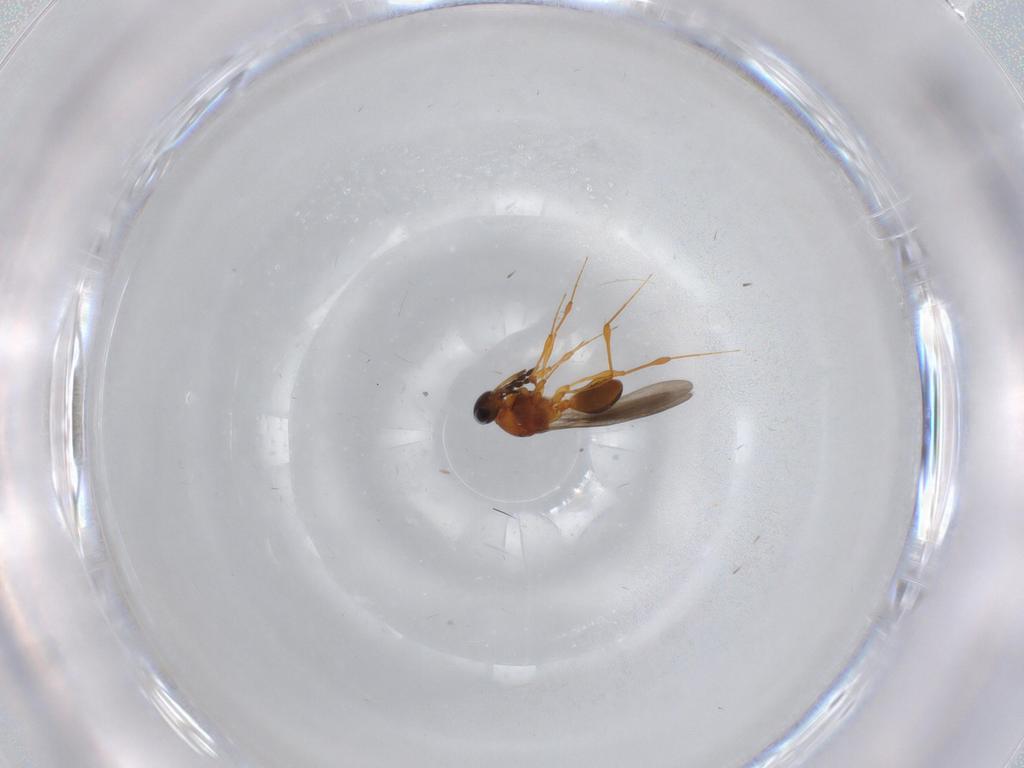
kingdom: Animalia
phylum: Arthropoda
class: Insecta
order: Hymenoptera
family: Platygastridae
